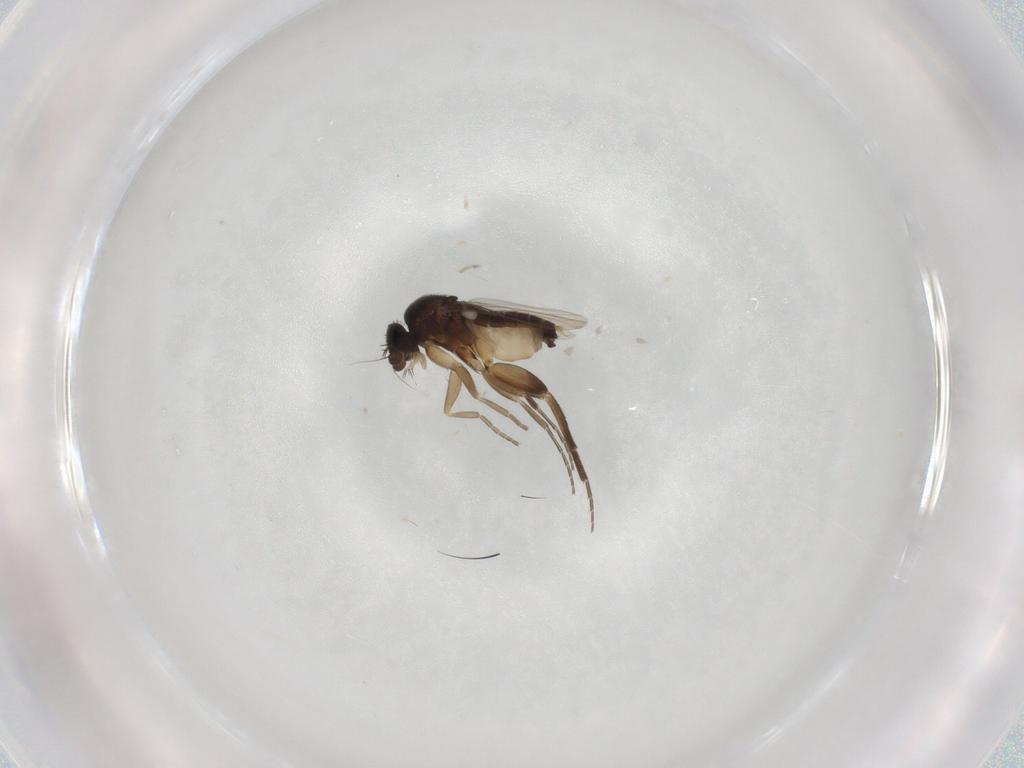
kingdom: Animalia
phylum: Arthropoda
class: Insecta
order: Diptera
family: Phoridae
